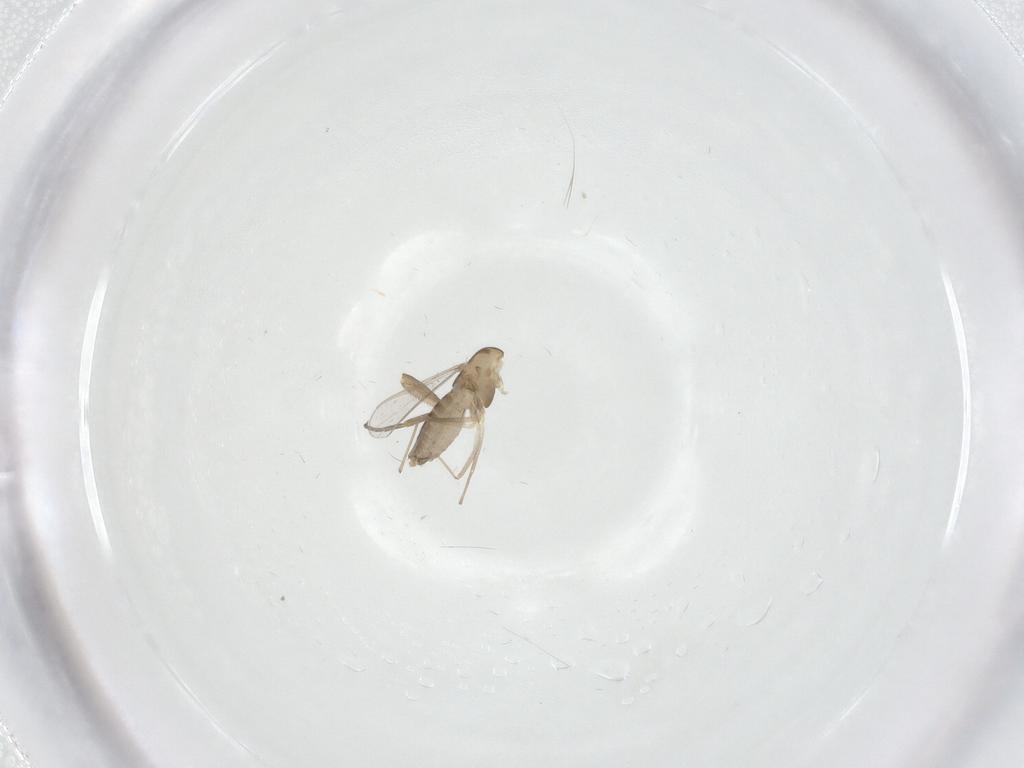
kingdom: Animalia
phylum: Arthropoda
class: Insecta
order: Diptera
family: Chironomidae
